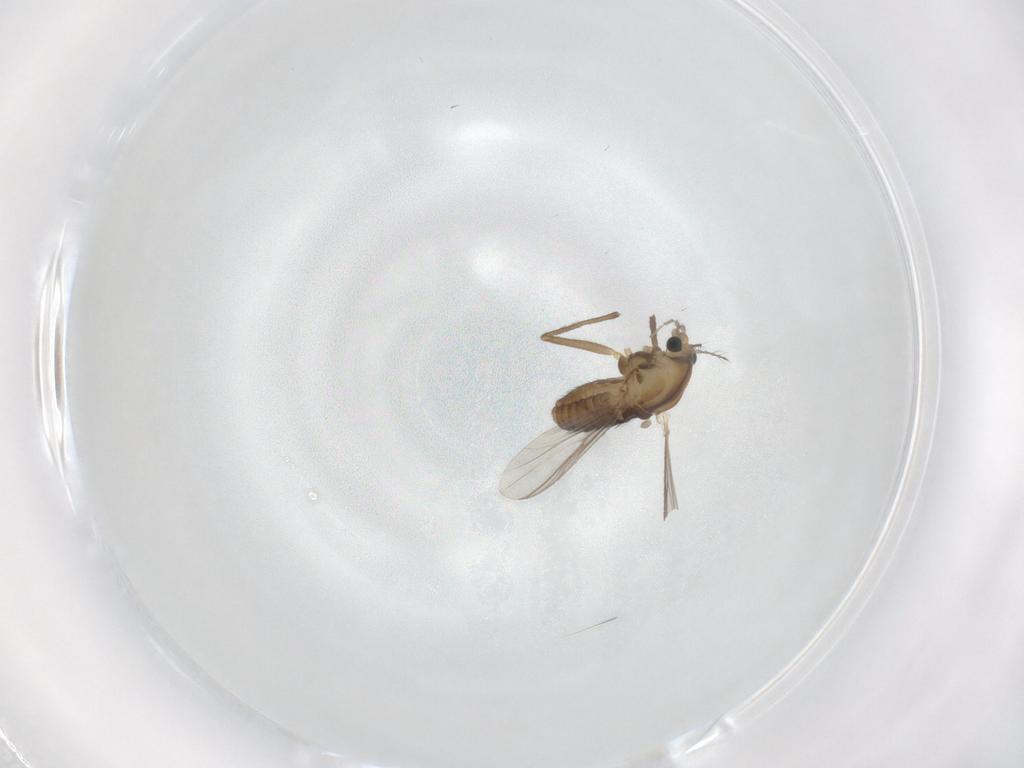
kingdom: Animalia
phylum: Arthropoda
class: Insecta
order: Diptera
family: Chironomidae
